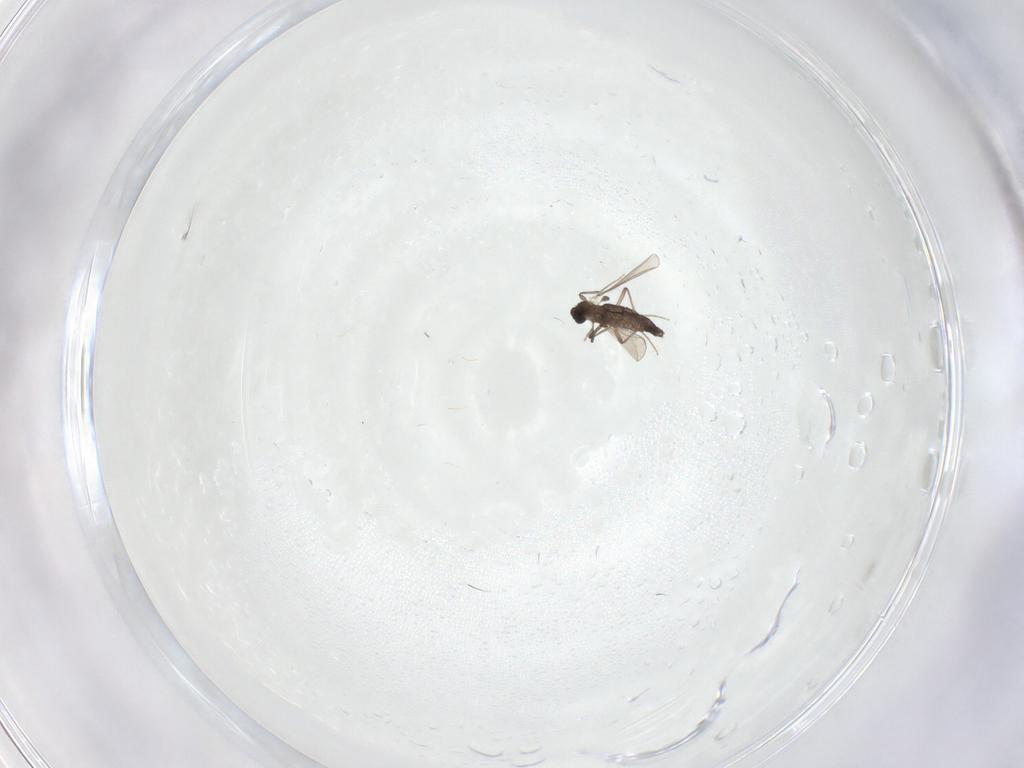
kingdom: Animalia
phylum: Arthropoda
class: Insecta
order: Diptera
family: Chironomidae
